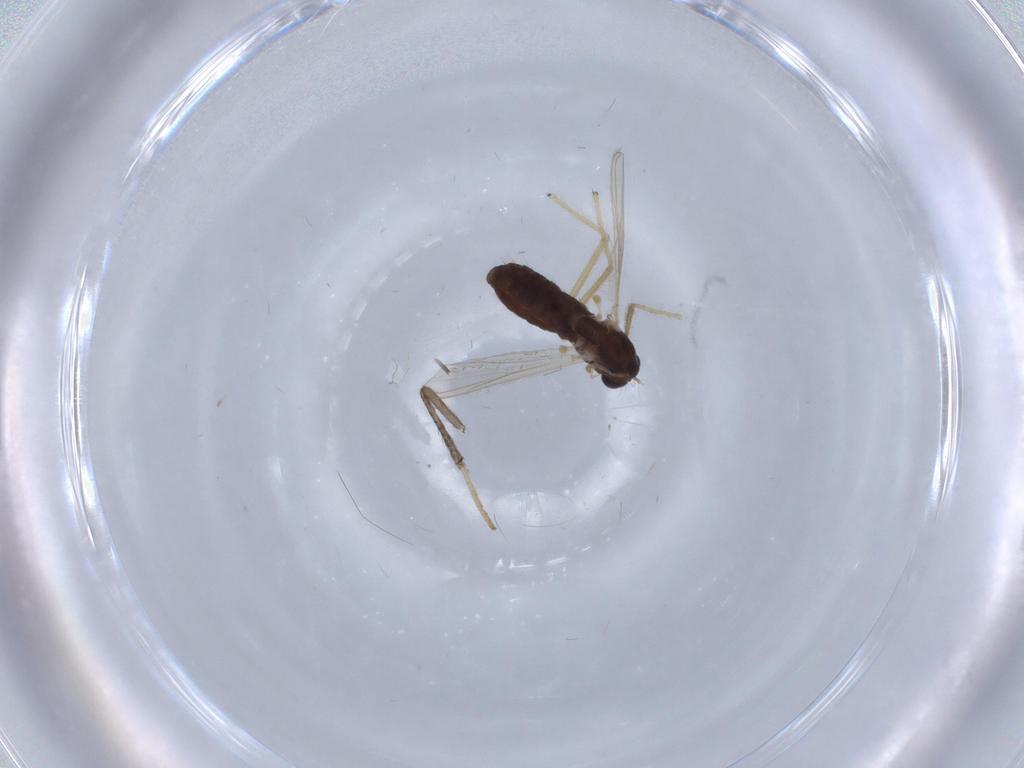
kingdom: Animalia
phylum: Arthropoda
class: Insecta
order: Diptera
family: Chironomidae
